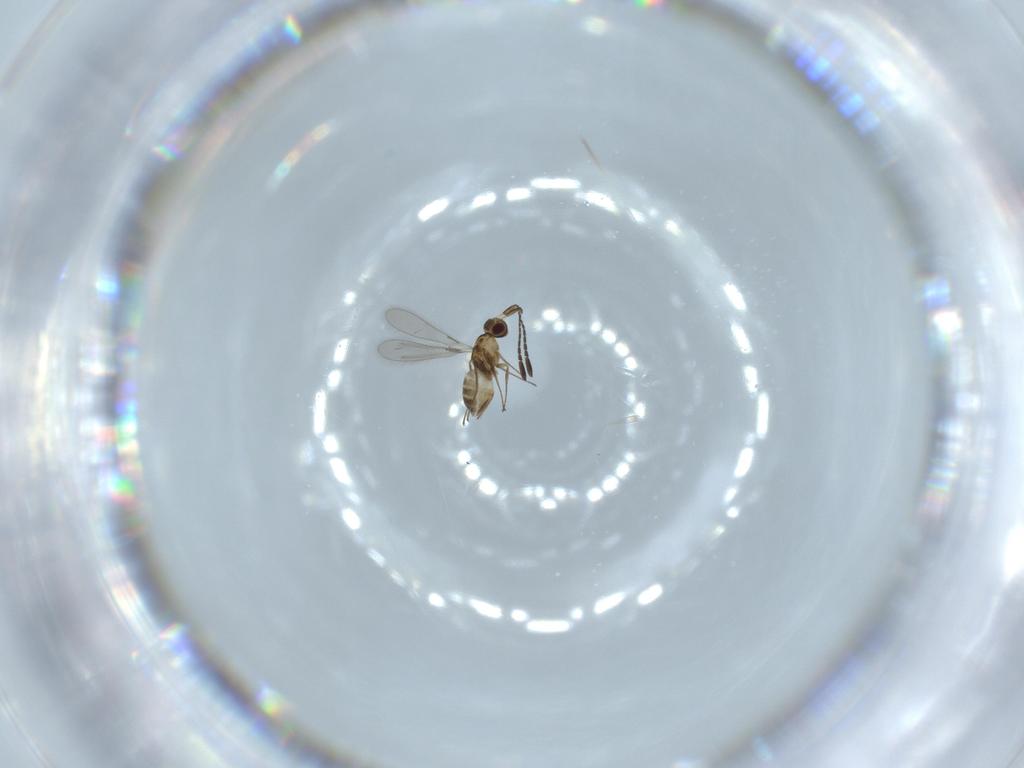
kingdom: Animalia
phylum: Arthropoda
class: Insecta
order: Hymenoptera
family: Mymaridae
